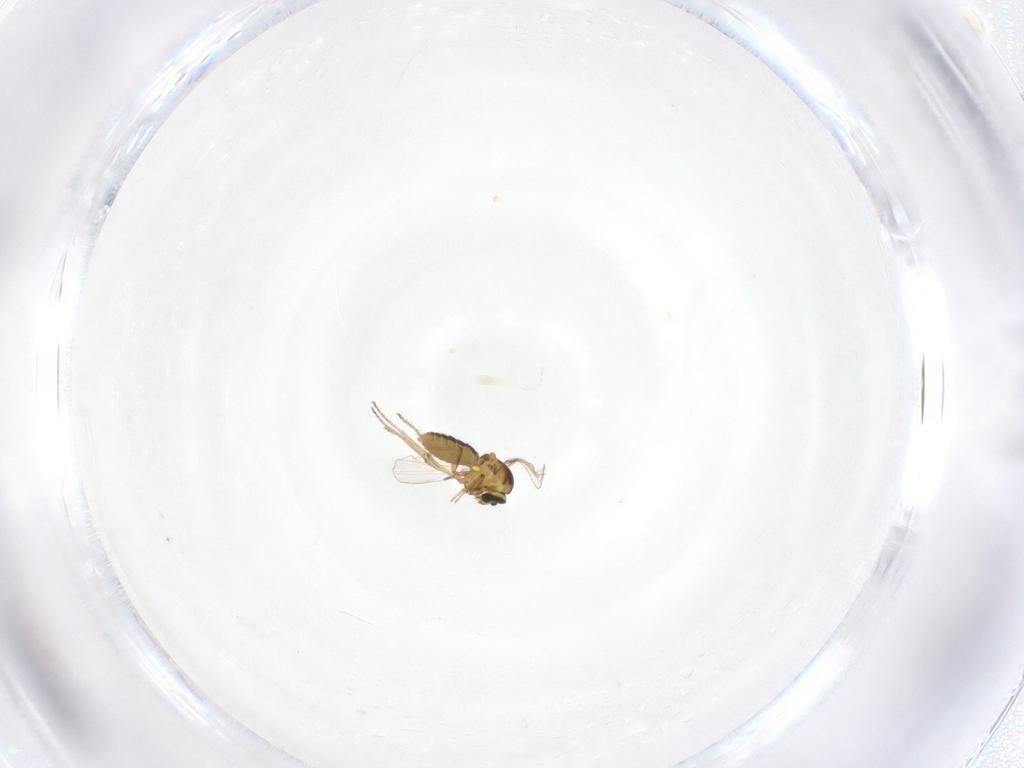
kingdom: Animalia
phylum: Arthropoda
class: Insecta
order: Diptera
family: Ceratopogonidae
